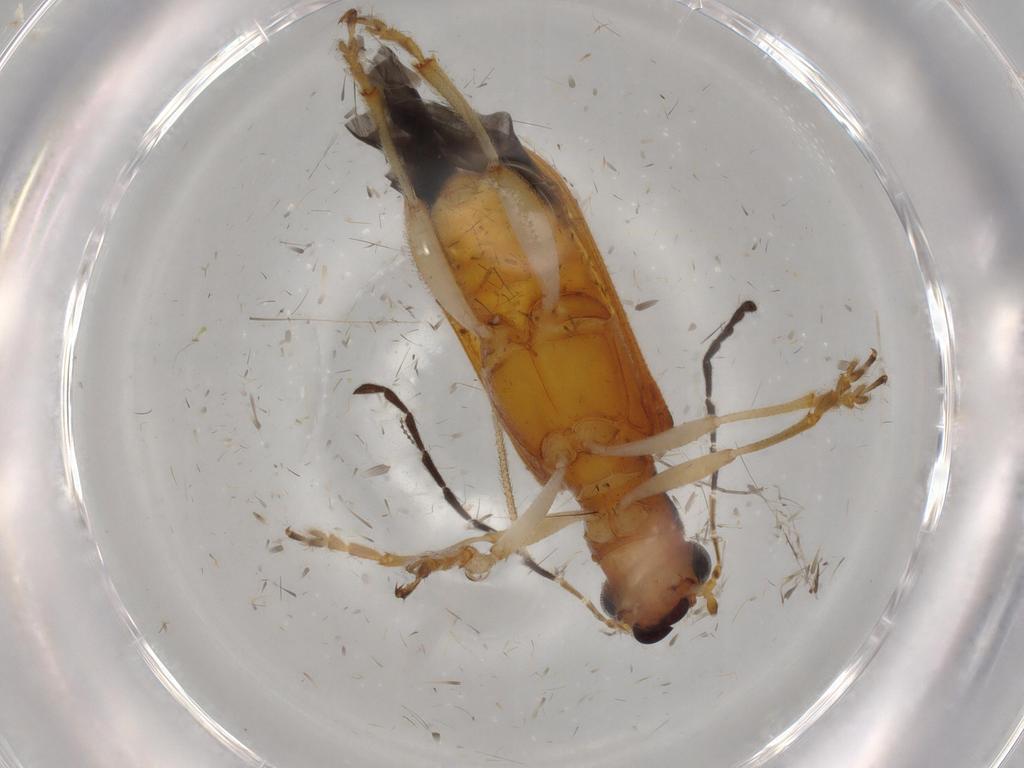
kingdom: Animalia
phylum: Arthropoda
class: Insecta
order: Coleoptera
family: Chrysomelidae
